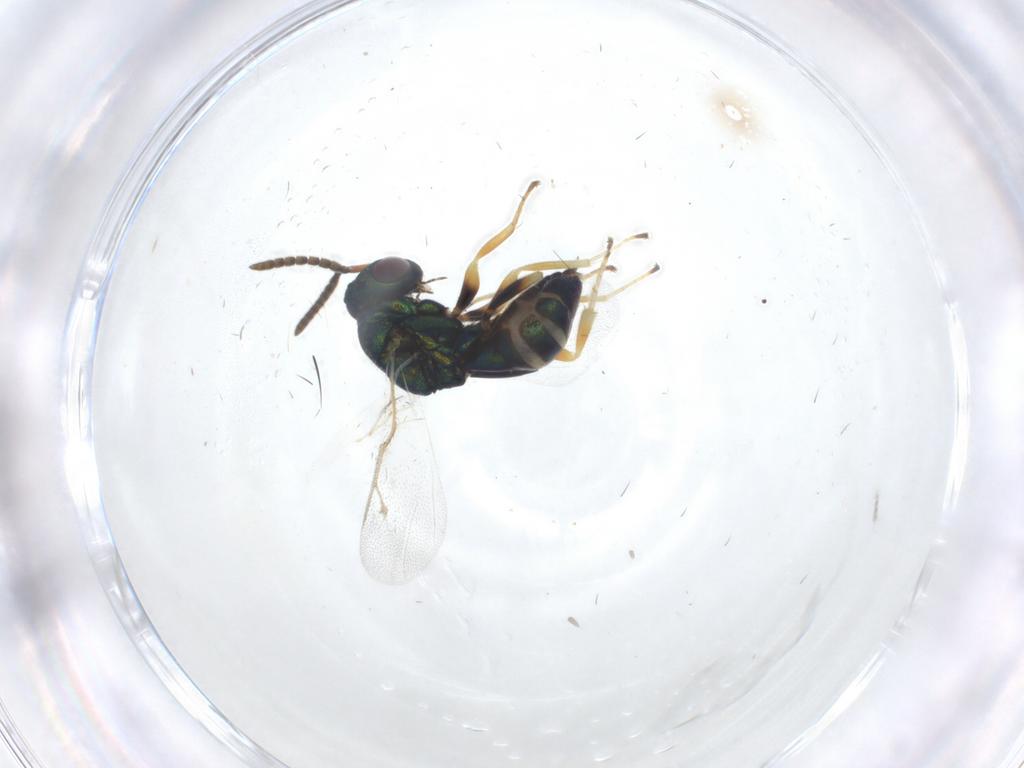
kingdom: Animalia
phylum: Arthropoda
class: Insecta
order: Hymenoptera
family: Pteromalidae
